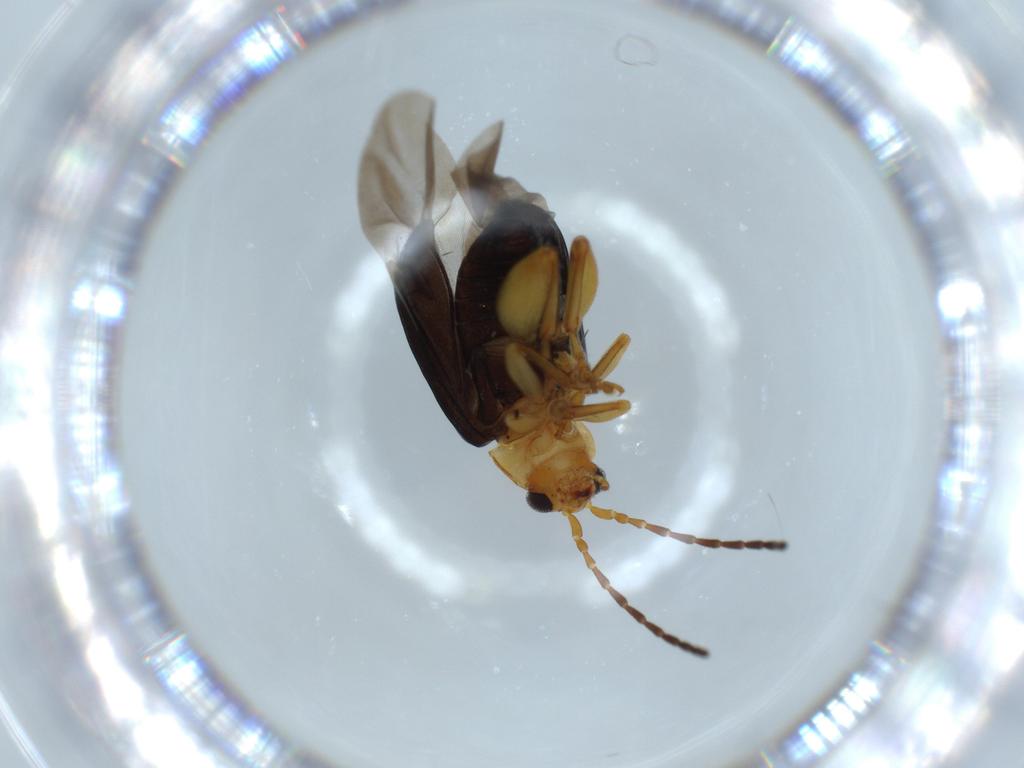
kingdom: Animalia
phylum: Arthropoda
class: Insecta
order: Coleoptera
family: Chrysomelidae
